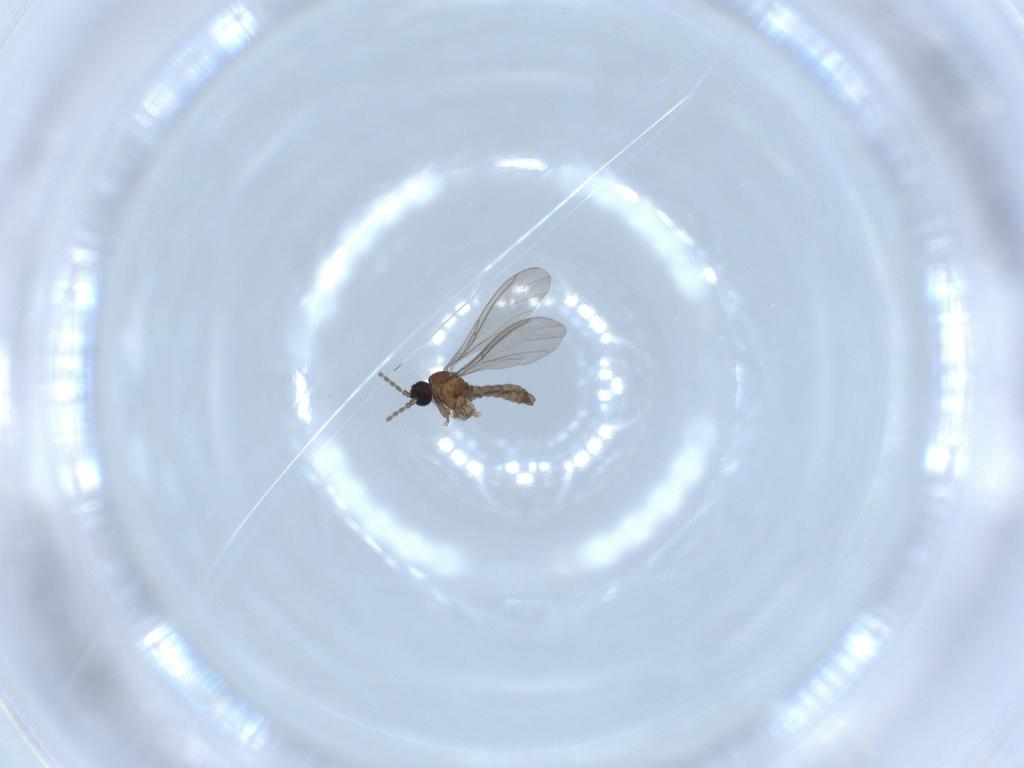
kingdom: Animalia
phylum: Arthropoda
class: Insecta
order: Diptera
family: Sciaridae
